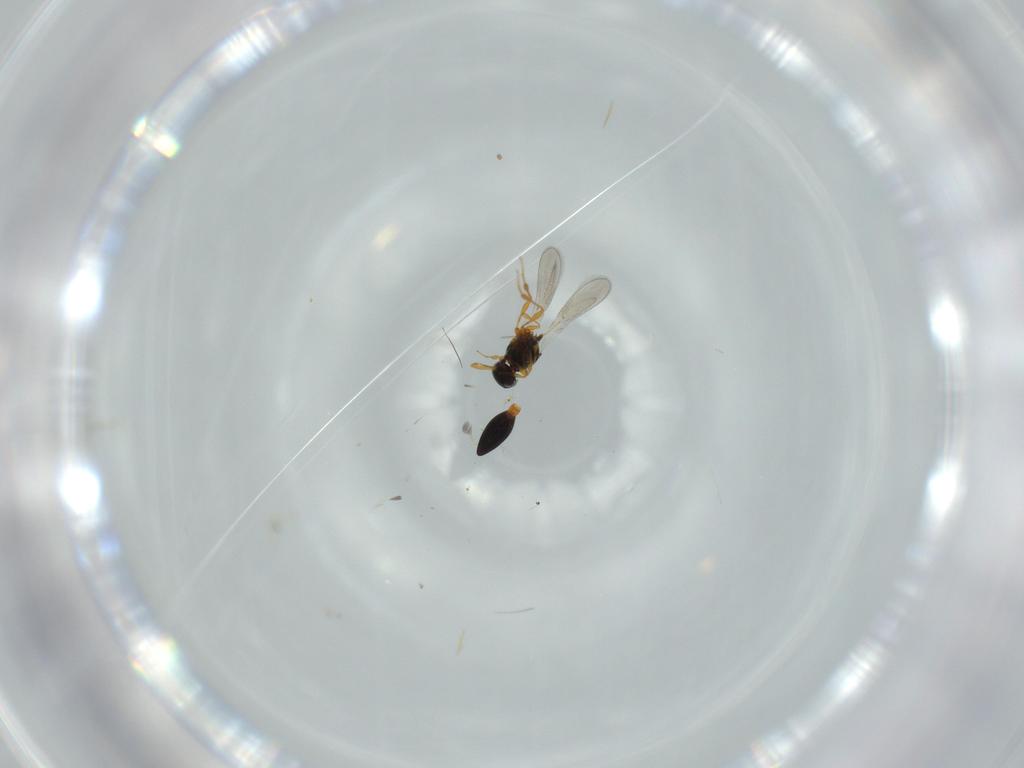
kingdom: Animalia
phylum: Arthropoda
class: Insecta
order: Hymenoptera
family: Platygastridae
